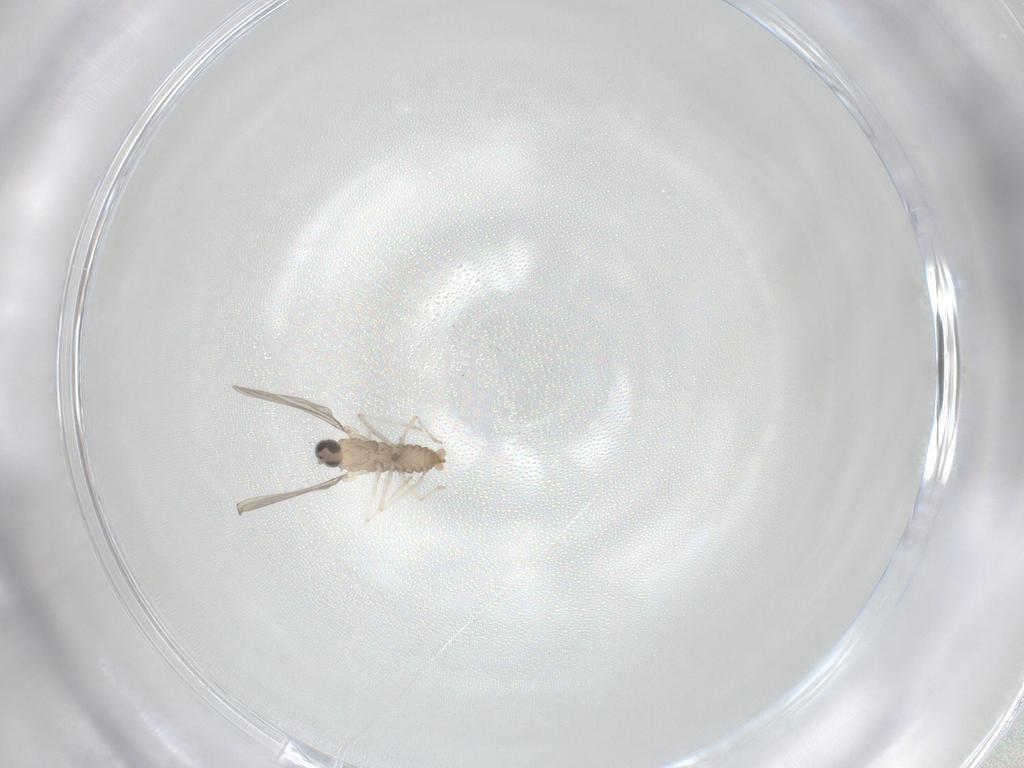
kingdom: Animalia
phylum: Arthropoda
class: Insecta
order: Diptera
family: Cecidomyiidae
